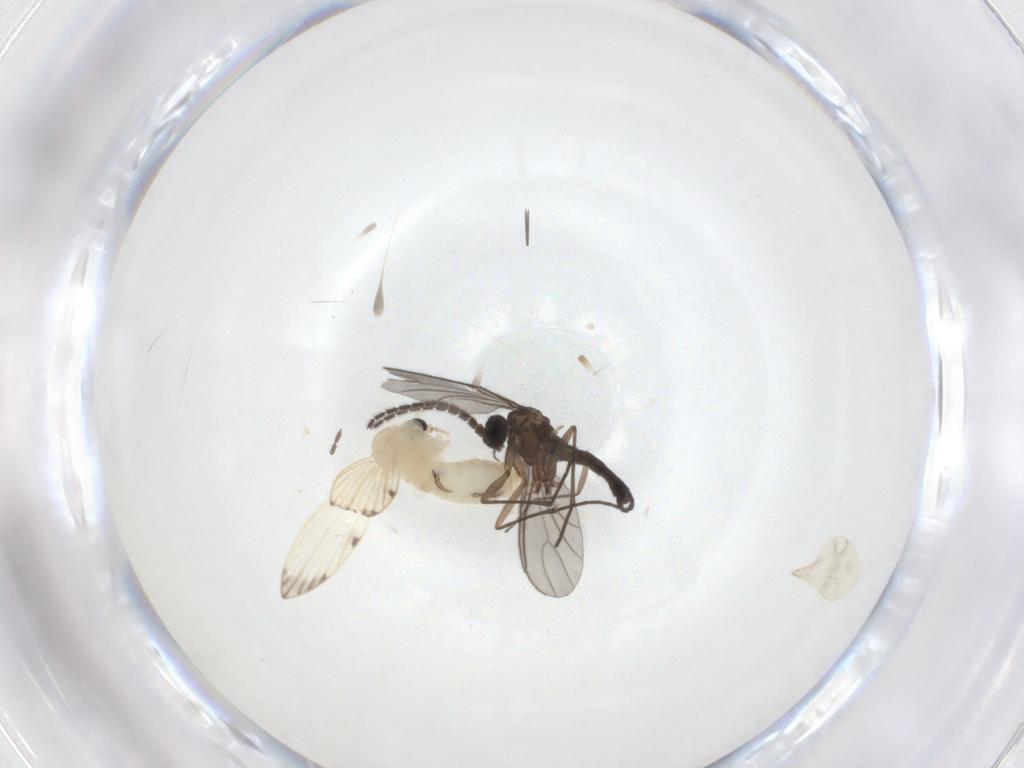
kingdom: Animalia
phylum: Arthropoda
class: Insecta
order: Diptera
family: Psychodidae
